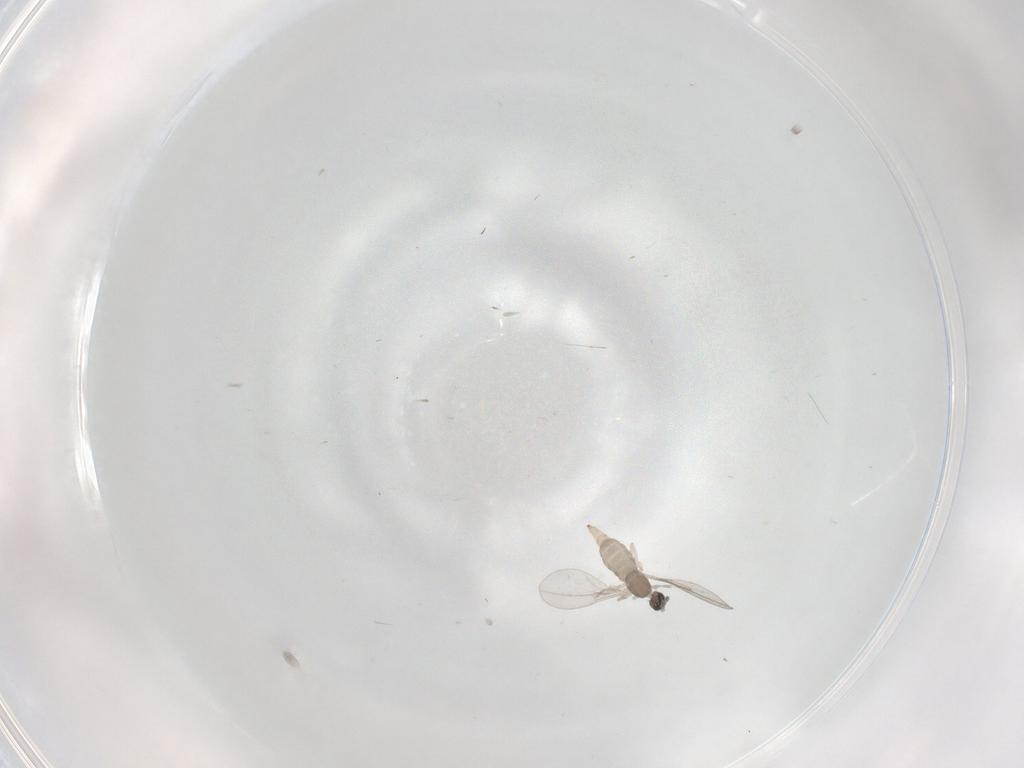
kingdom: Animalia
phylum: Arthropoda
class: Insecta
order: Diptera
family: Cecidomyiidae
